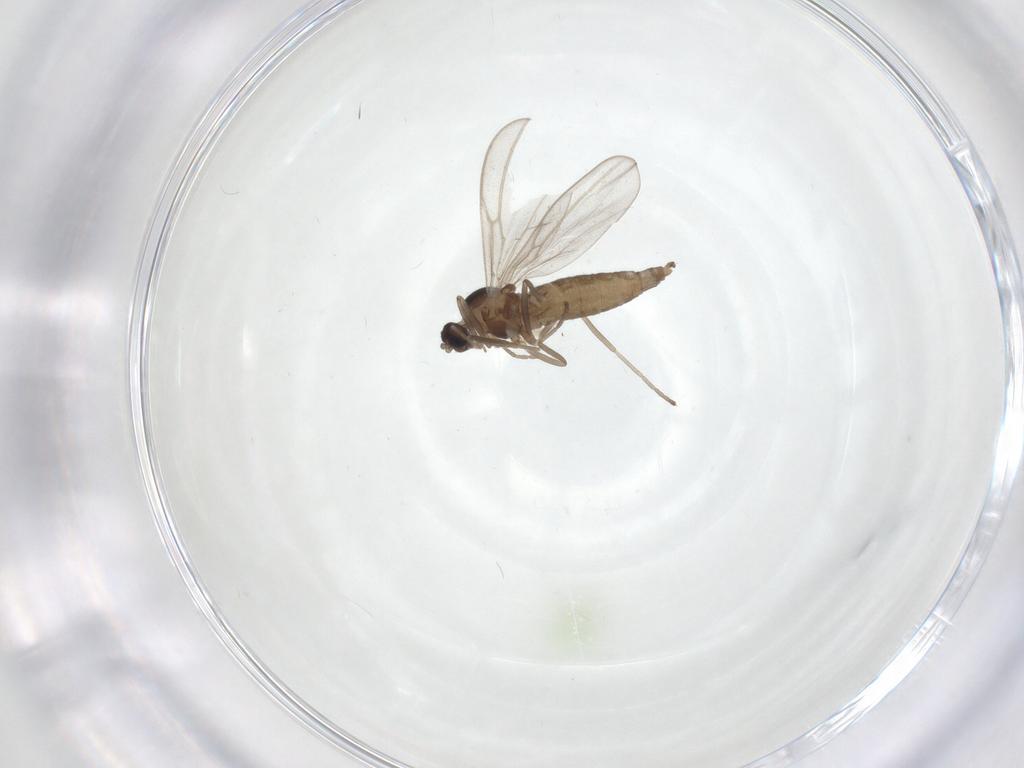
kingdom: Animalia
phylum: Arthropoda
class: Insecta
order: Diptera
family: Cecidomyiidae
